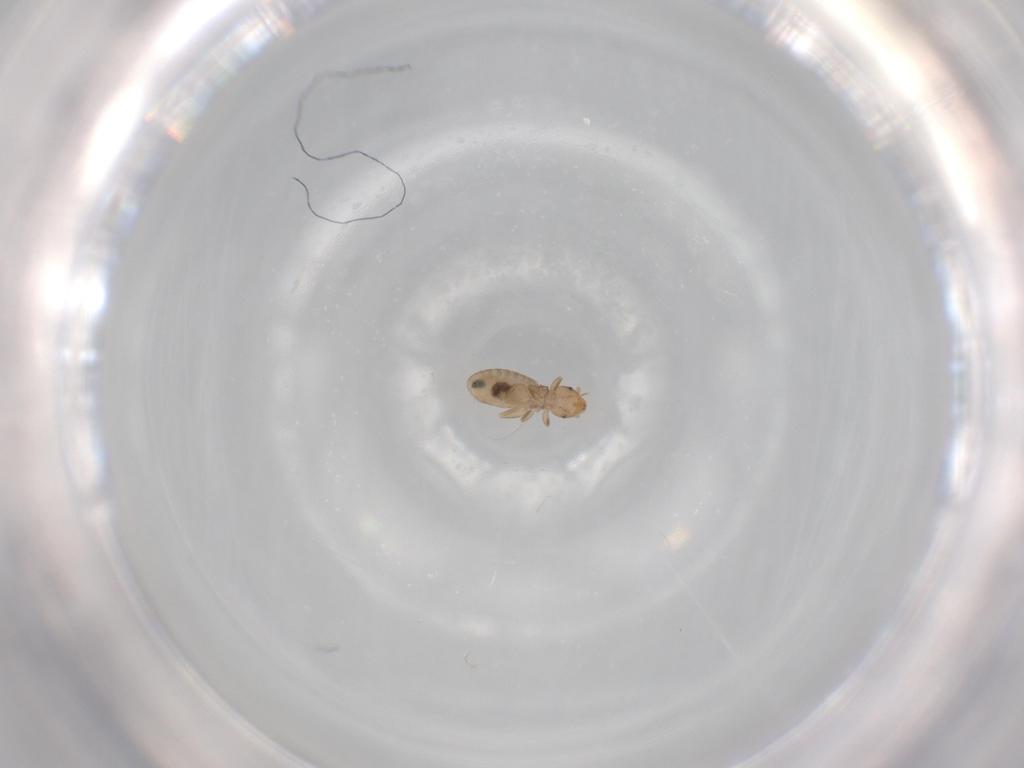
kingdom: Animalia
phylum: Arthropoda
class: Insecta
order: Psocodea
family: Liposcelididae
